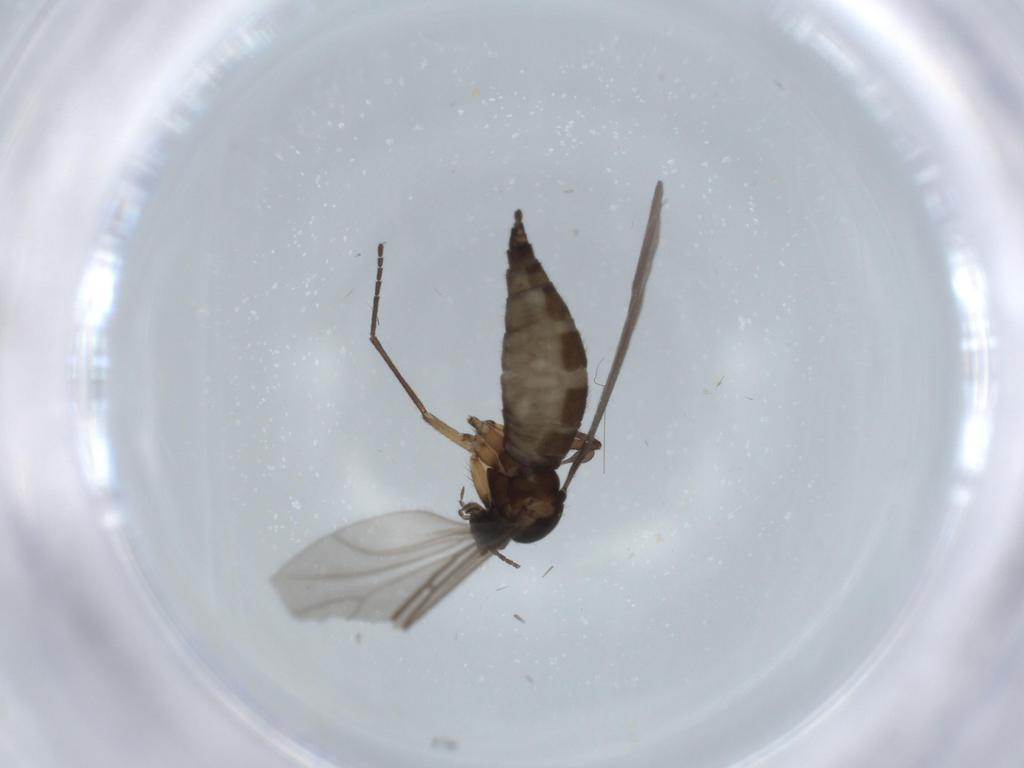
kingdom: Animalia
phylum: Arthropoda
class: Insecta
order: Diptera
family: Sciaridae
